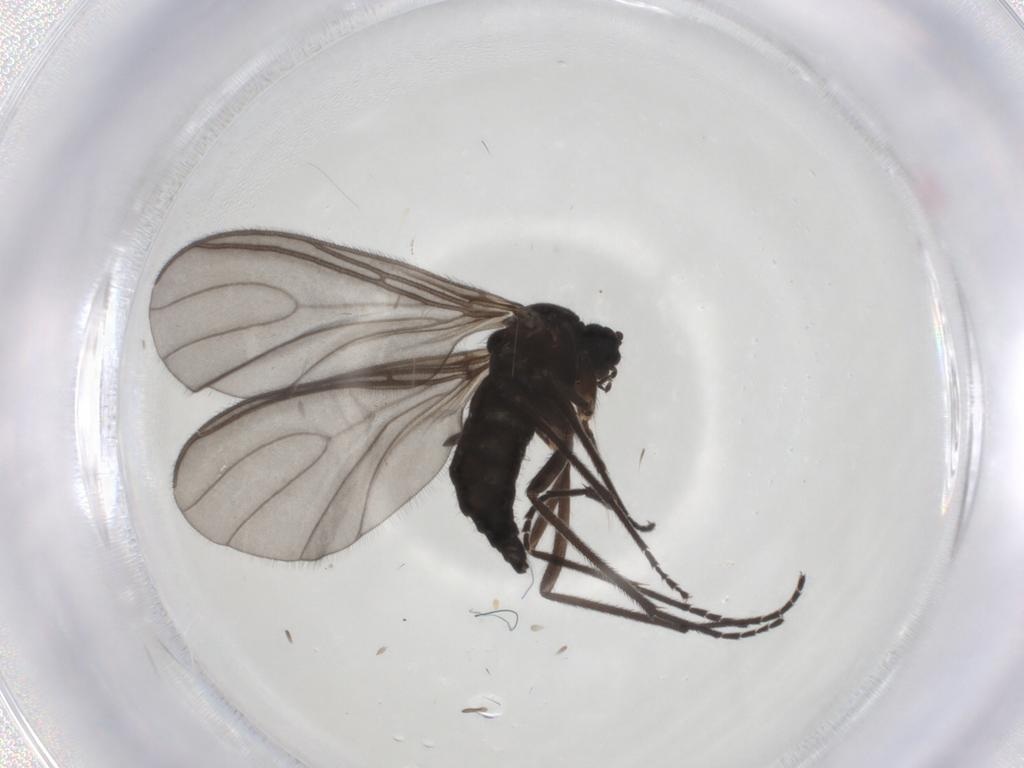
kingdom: Animalia
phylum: Arthropoda
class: Insecta
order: Diptera
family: Sciaridae
